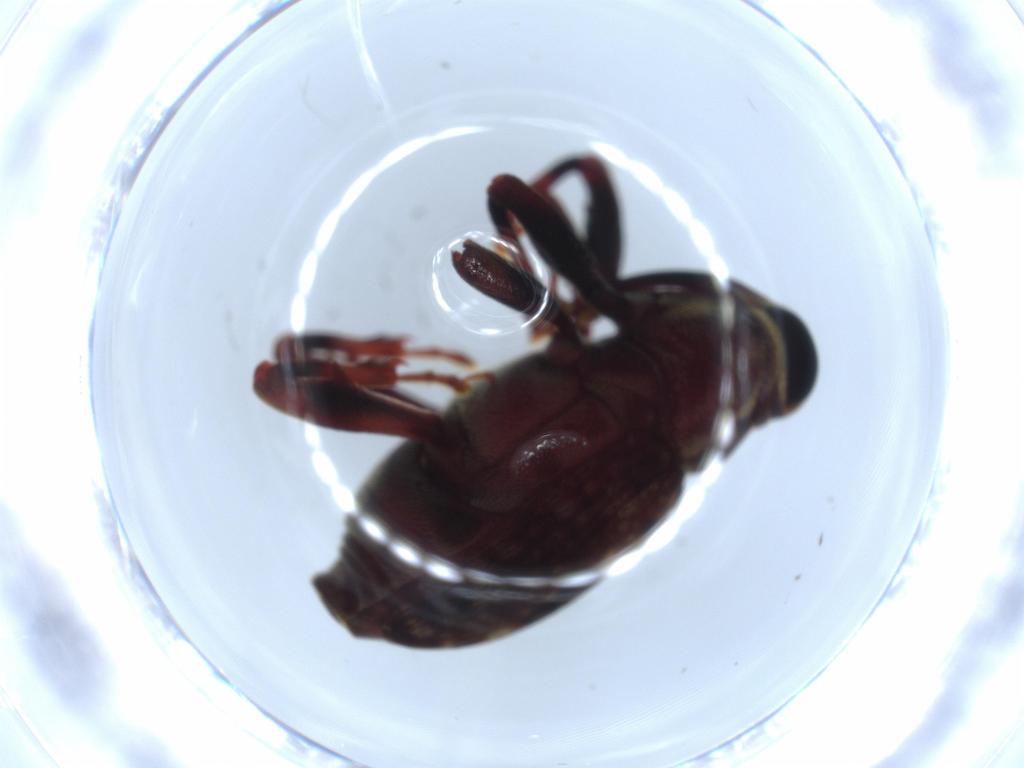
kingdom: Animalia
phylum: Arthropoda
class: Insecta
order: Coleoptera
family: Curculionidae
